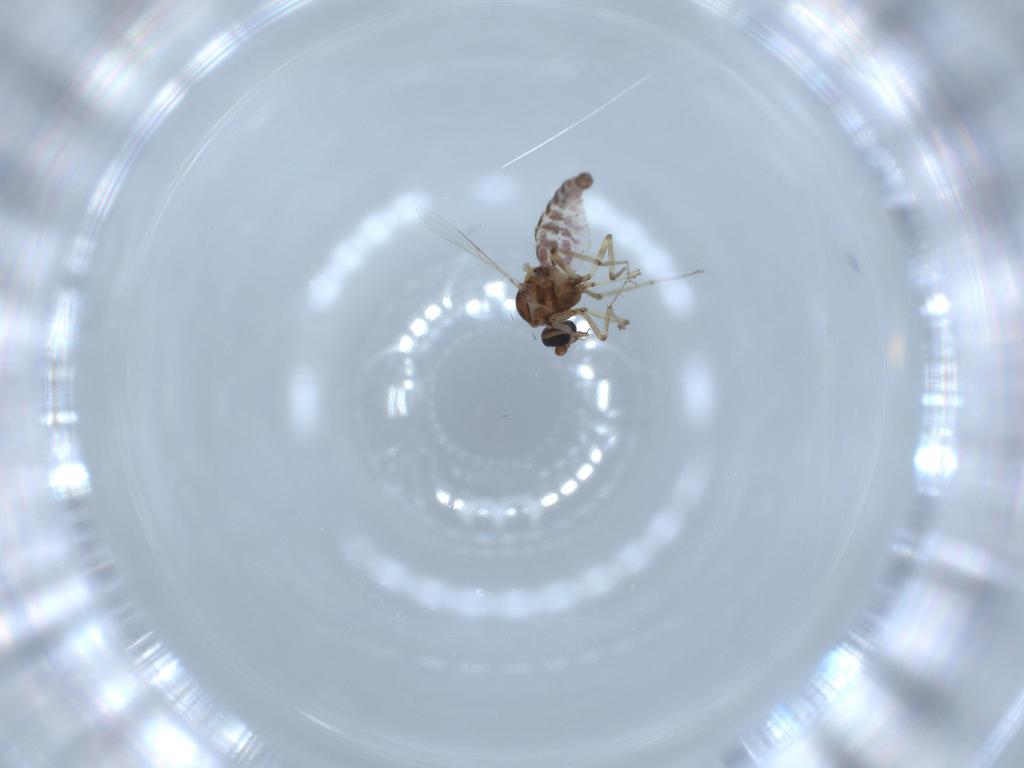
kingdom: Animalia
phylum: Arthropoda
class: Insecta
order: Diptera
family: Ceratopogonidae
